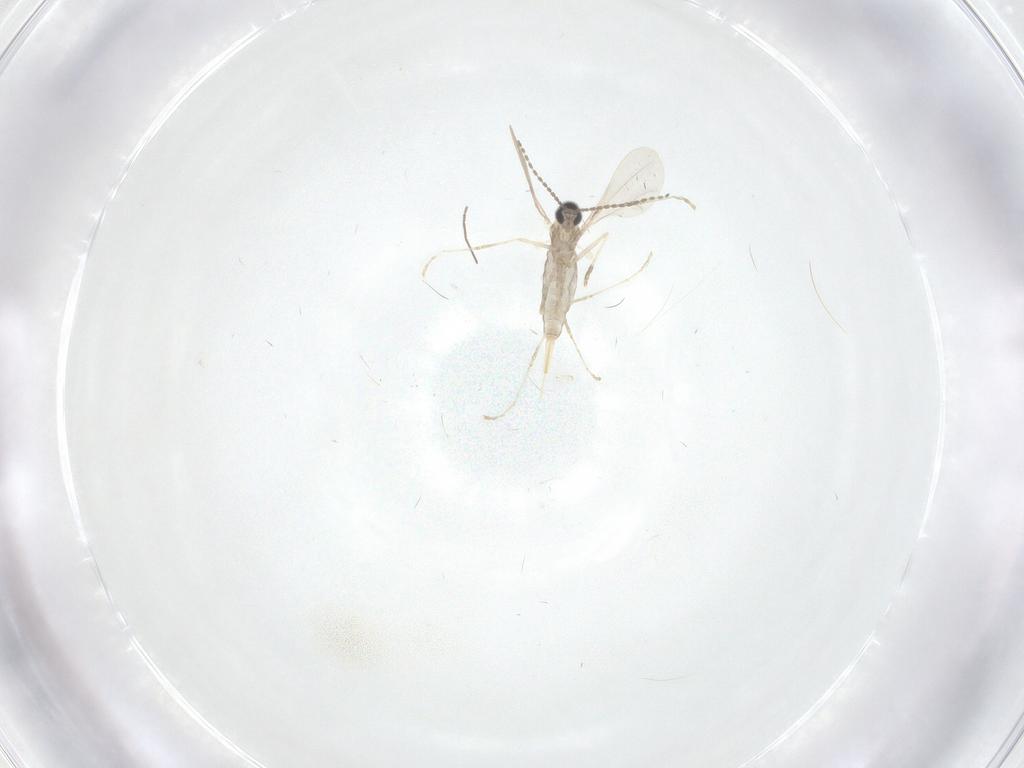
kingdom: Animalia
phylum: Arthropoda
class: Insecta
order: Diptera
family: Cecidomyiidae
